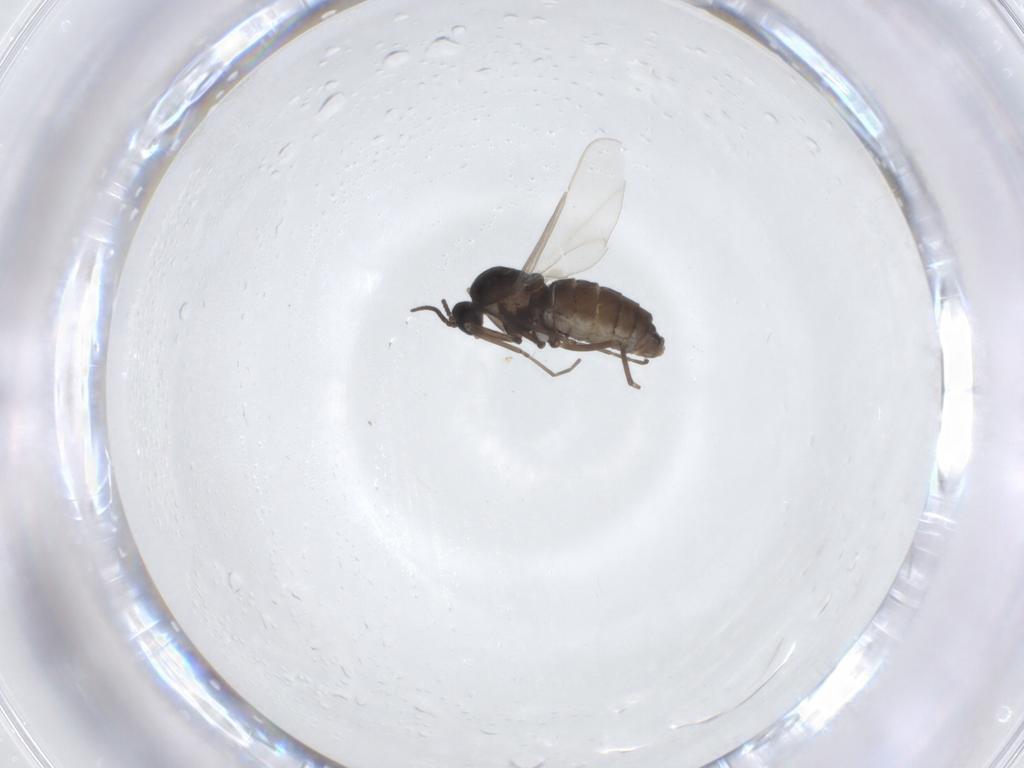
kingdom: Animalia
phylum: Arthropoda
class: Insecta
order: Diptera
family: Cecidomyiidae
